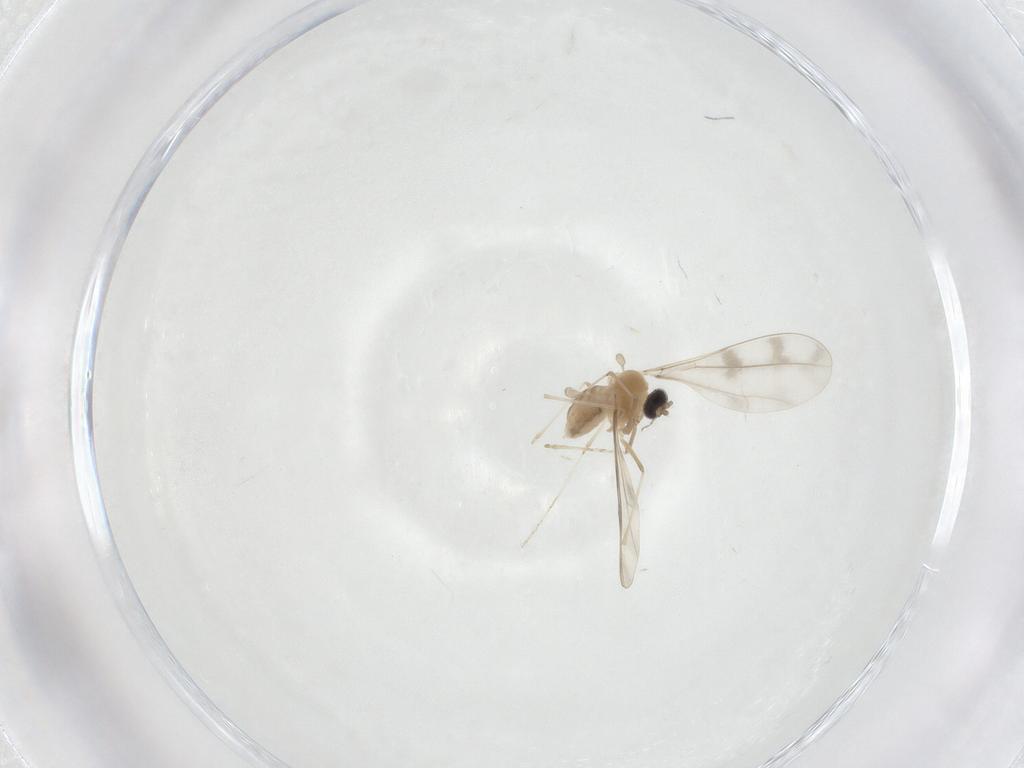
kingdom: Animalia
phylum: Arthropoda
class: Insecta
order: Diptera
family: Cecidomyiidae
